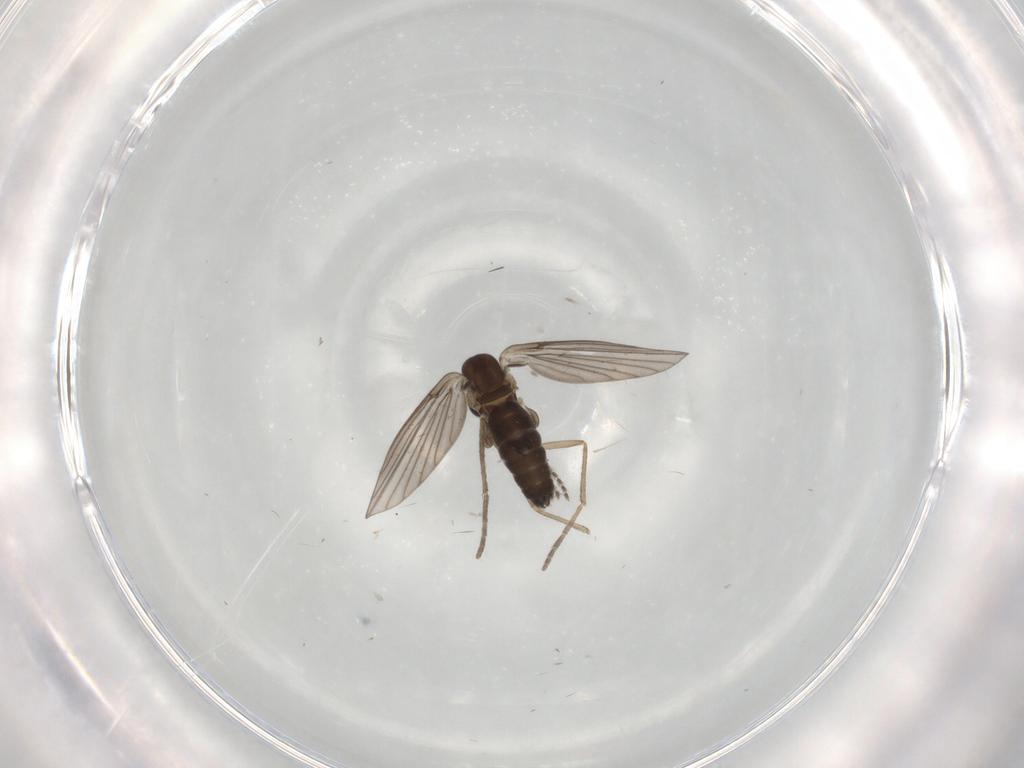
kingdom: Animalia
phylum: Arthropoda
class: Insecta
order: Diptera
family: Cecidomyiidae
